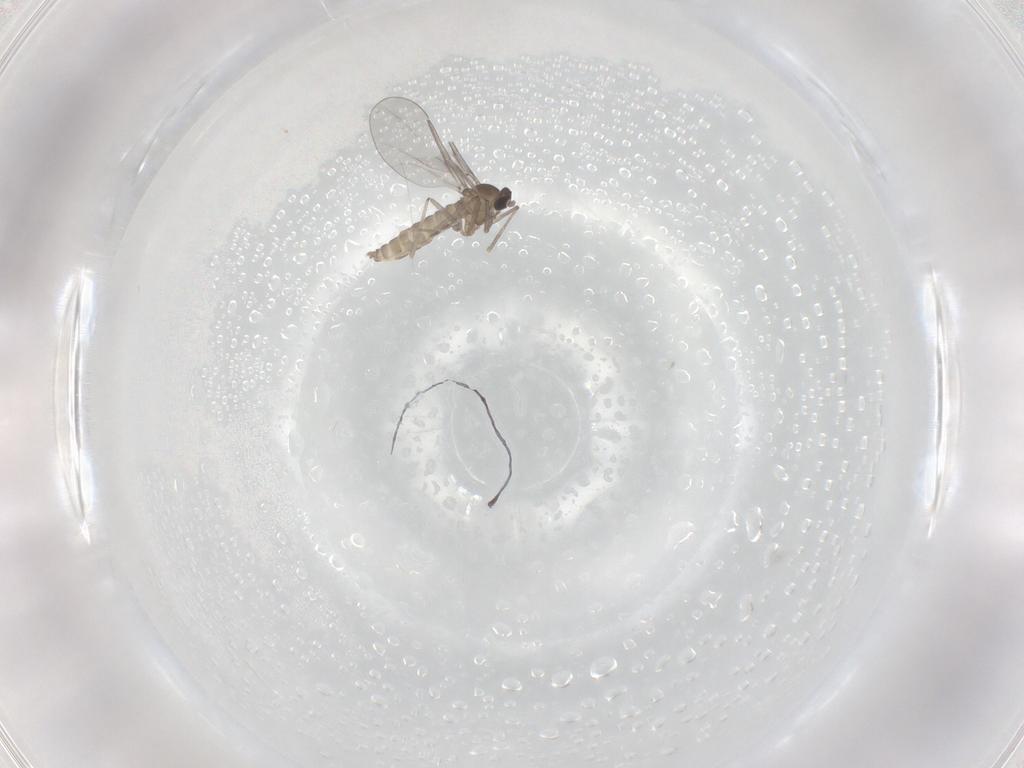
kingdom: Animalia
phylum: Arthropoda
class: Insecta
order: Diptera
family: Cecidomyiidae
